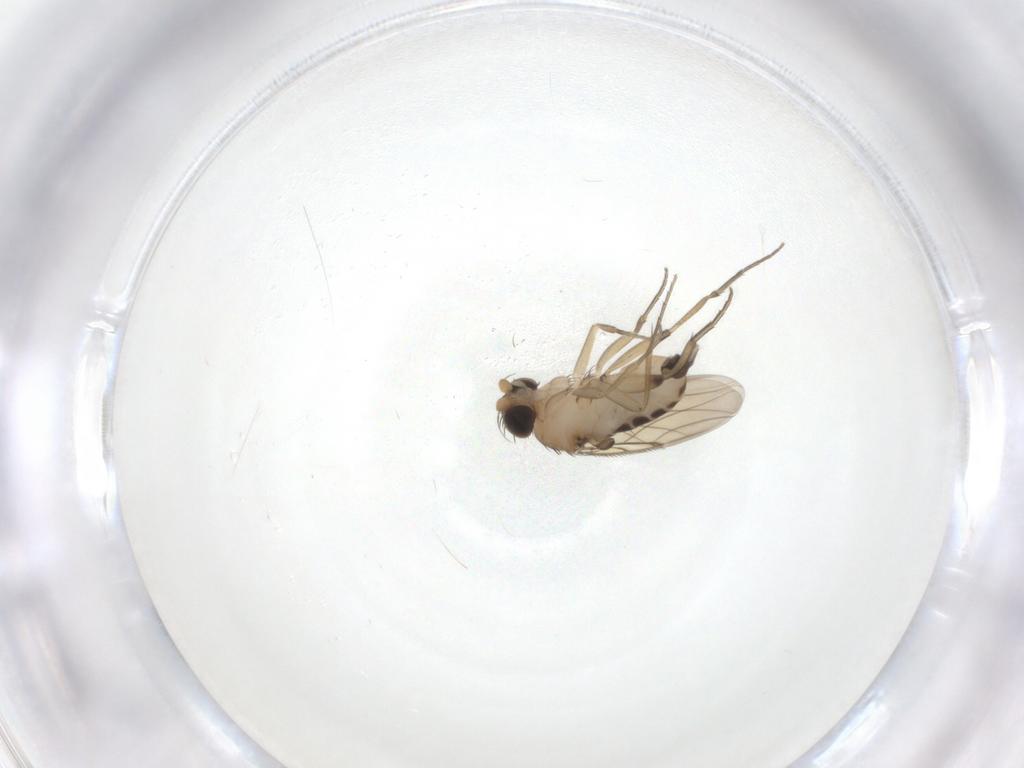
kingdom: Animalia
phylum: Arthropoda
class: Insecta
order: Diptera
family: Phoridae
